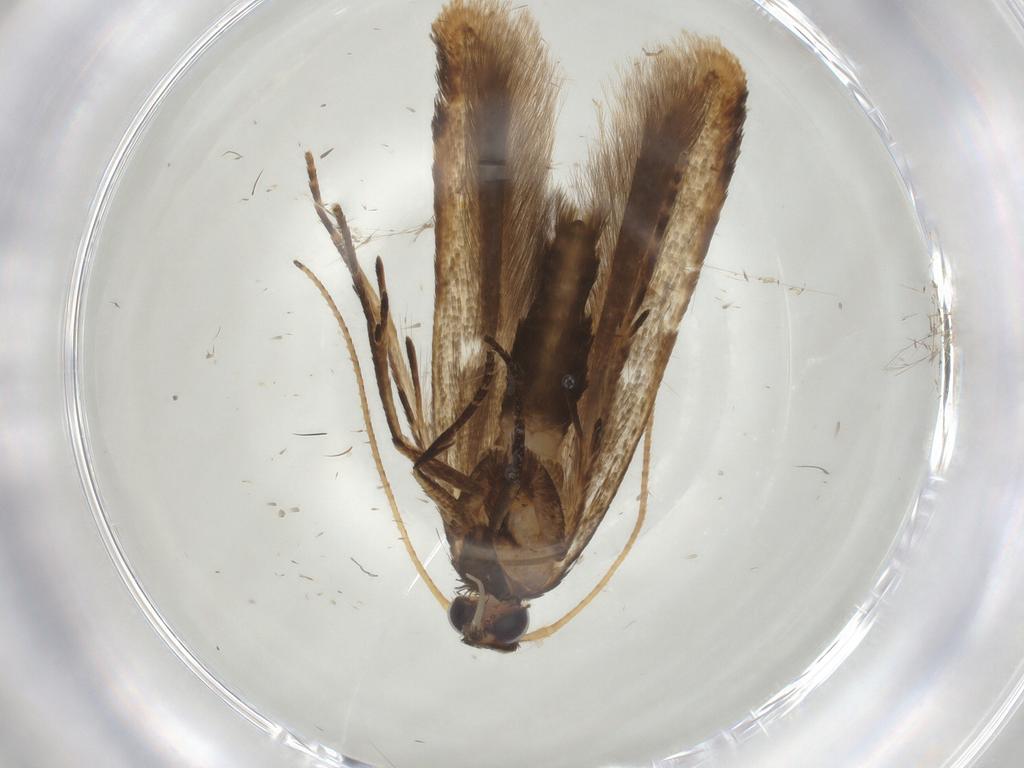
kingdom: Animalia
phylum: Arthropoda
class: Insecta
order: Lepidoptera
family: Gelechiidae
